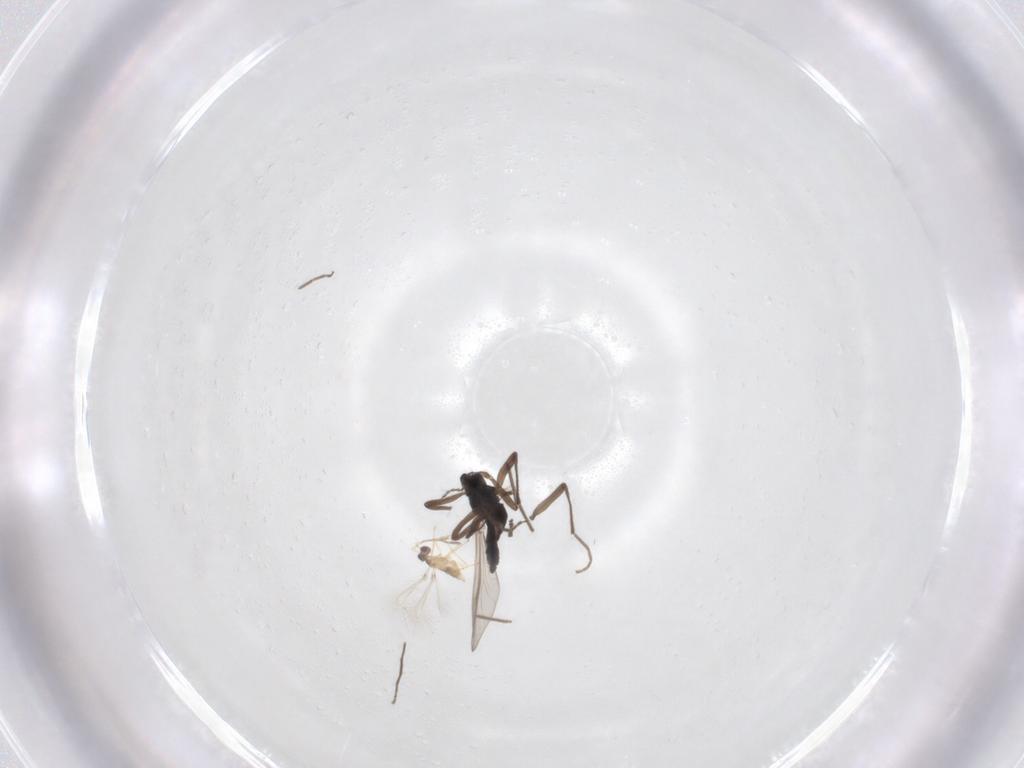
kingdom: Animalia
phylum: Arthropoda
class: Insecta
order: Diptera
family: Chironomidae
